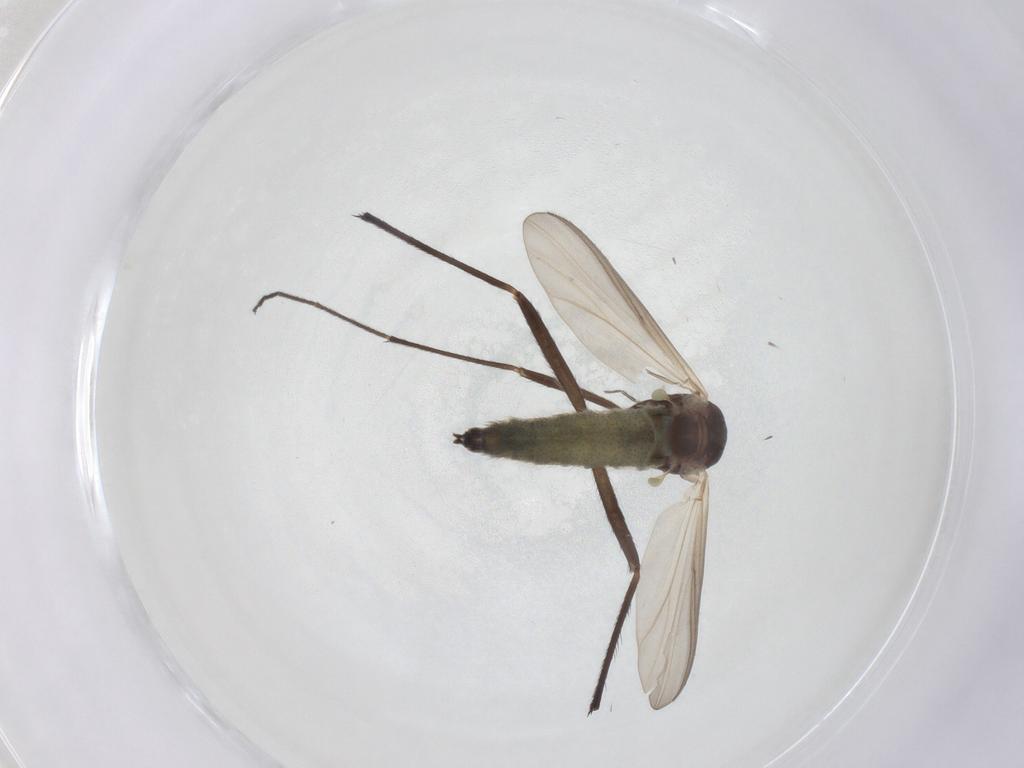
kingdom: Animalia
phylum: Arthropoda
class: Insecta
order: Diptera
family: Chironomidae
